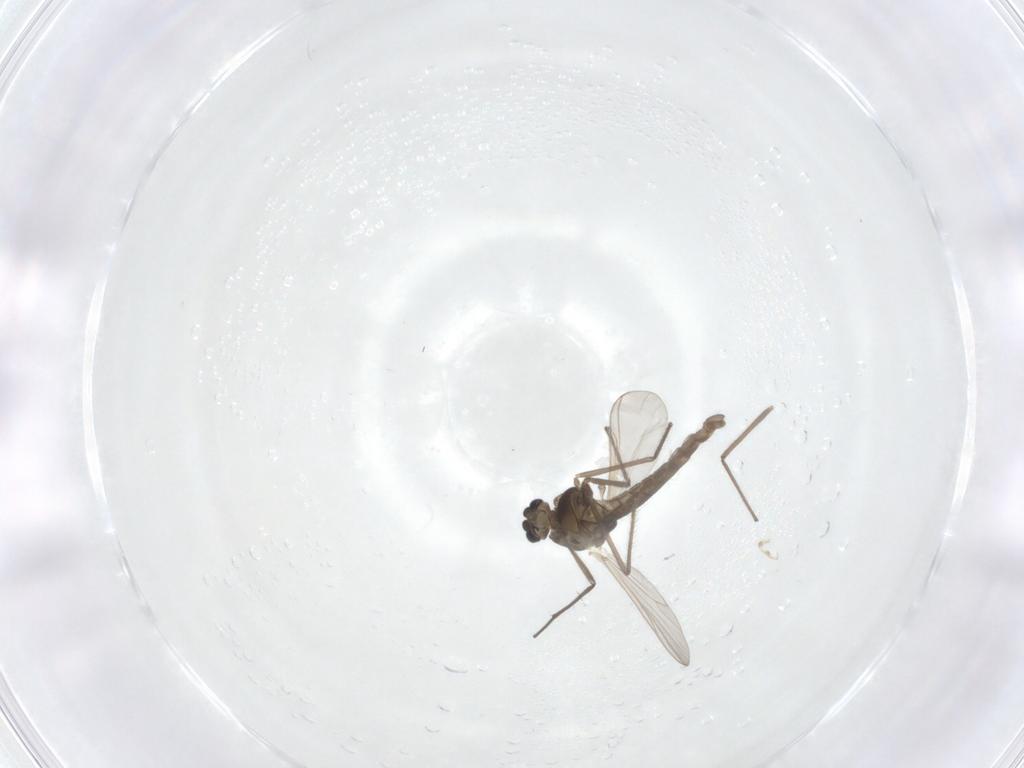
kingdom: Animalia
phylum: Arthropoda
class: Insecta
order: Diptera
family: Chironomidae
